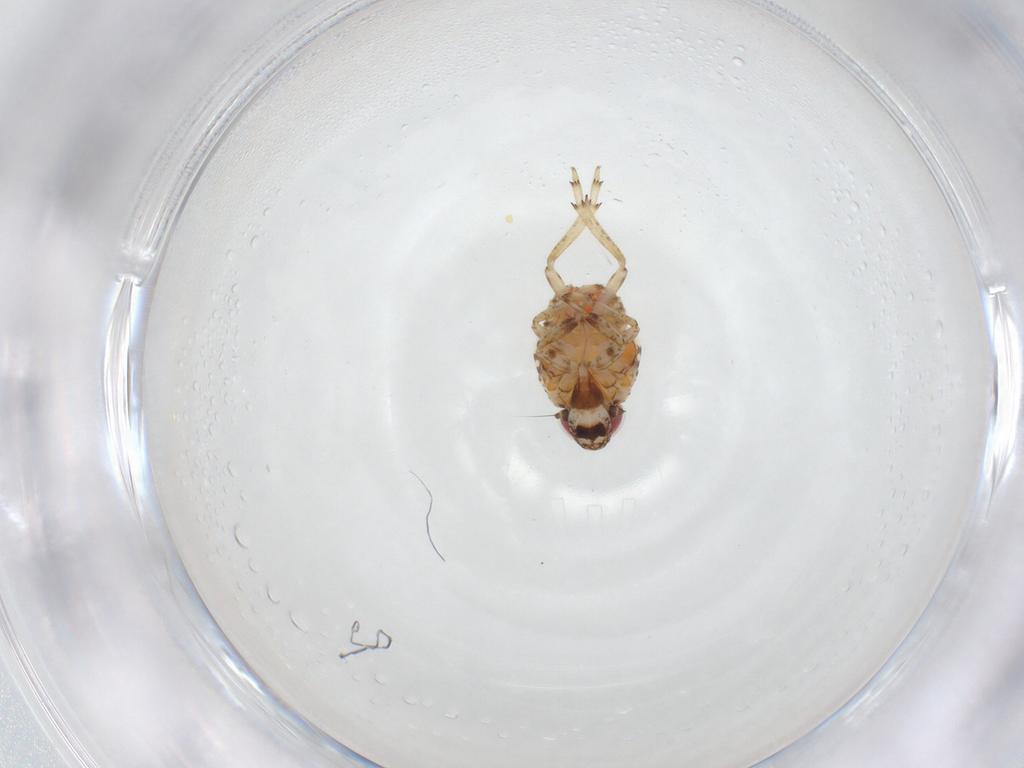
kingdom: Animalia
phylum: Arthropoda
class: Insecta
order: Hemiptera
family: Issidae
